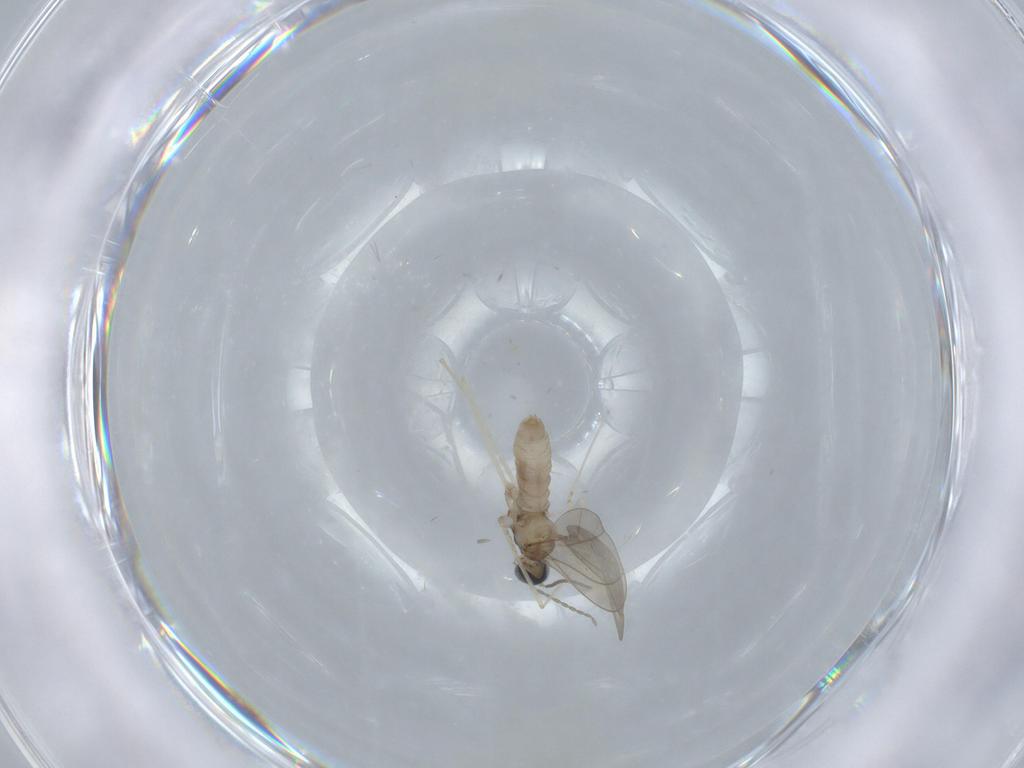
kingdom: Animalia
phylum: Arthropoda
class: Insecta
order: Diptera
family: Cecidomyiidae
